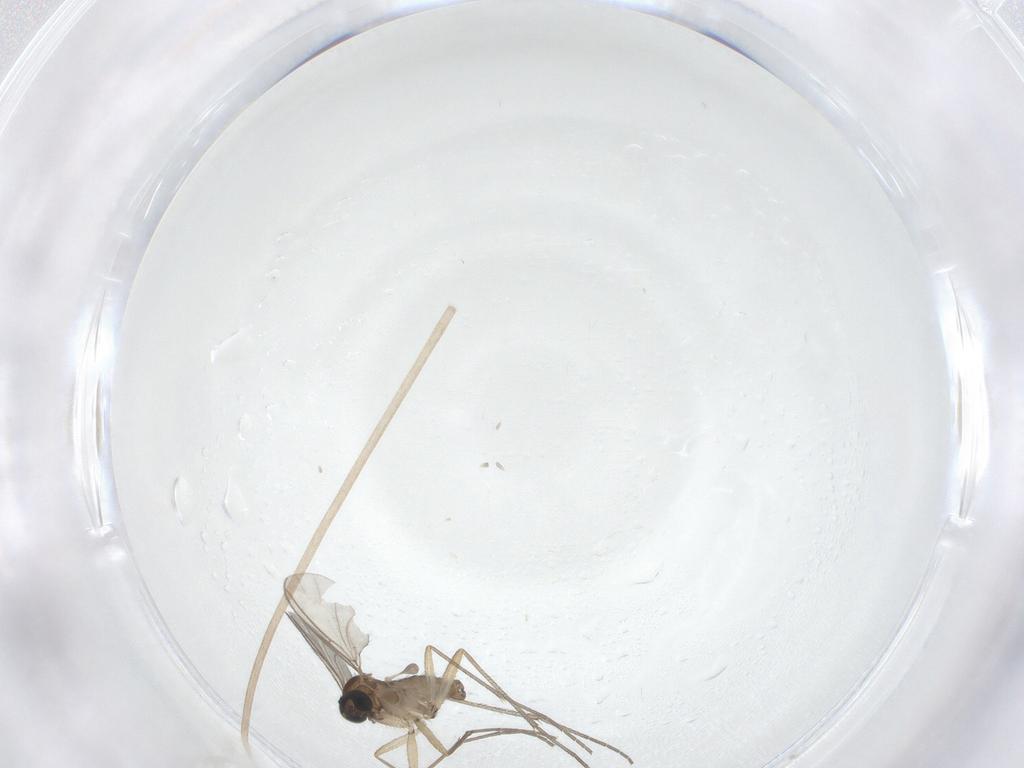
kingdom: Animalia
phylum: Arthropoda
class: Insecta
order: Diptera
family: Sciaridae
